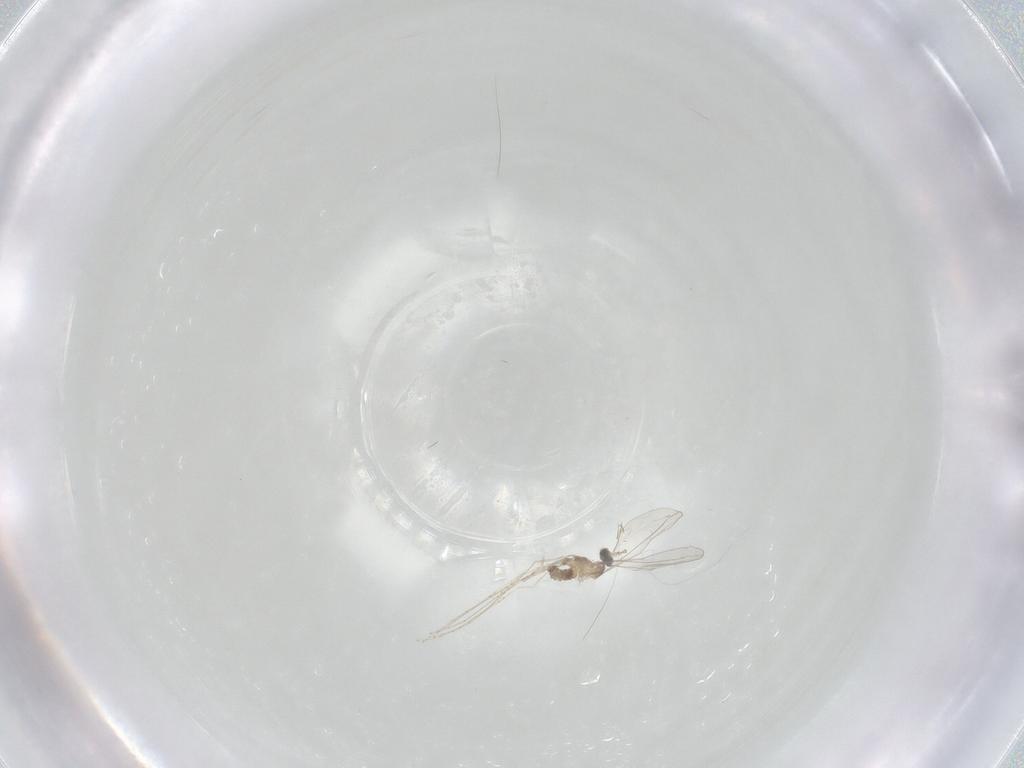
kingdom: Animalia
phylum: Arthropoda
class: Insecta
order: Diptera
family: Cecidomyiidae
